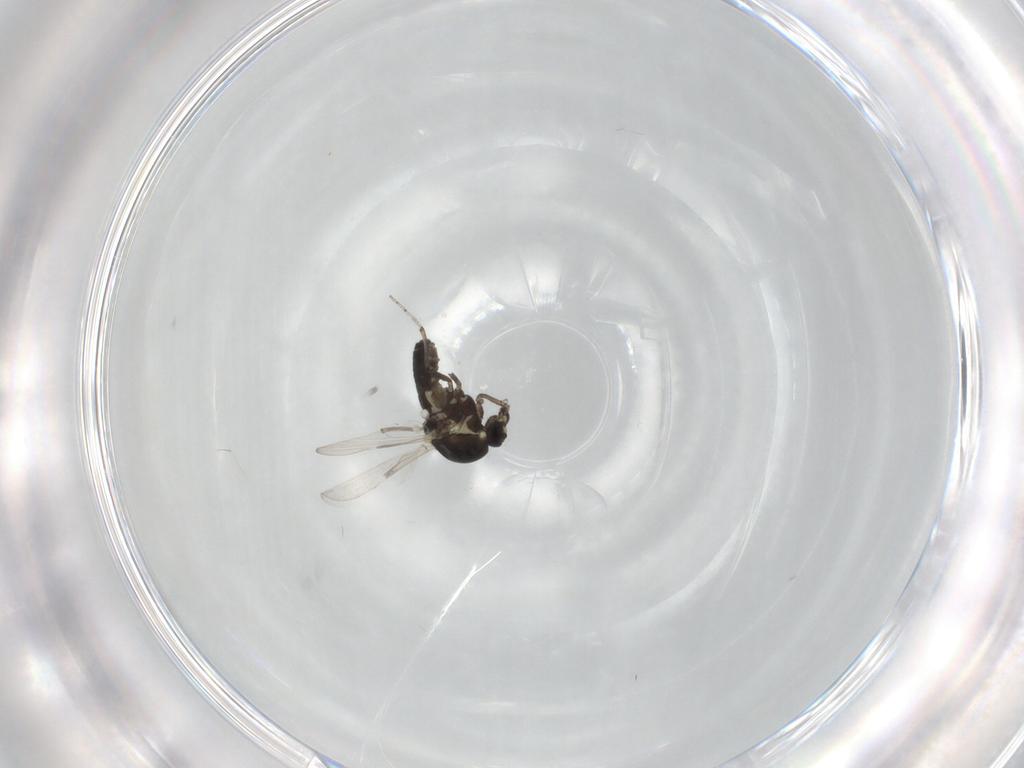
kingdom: Animalia
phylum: Arthropoda
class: Insecta
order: Diptera
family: Ceratopogonidae
